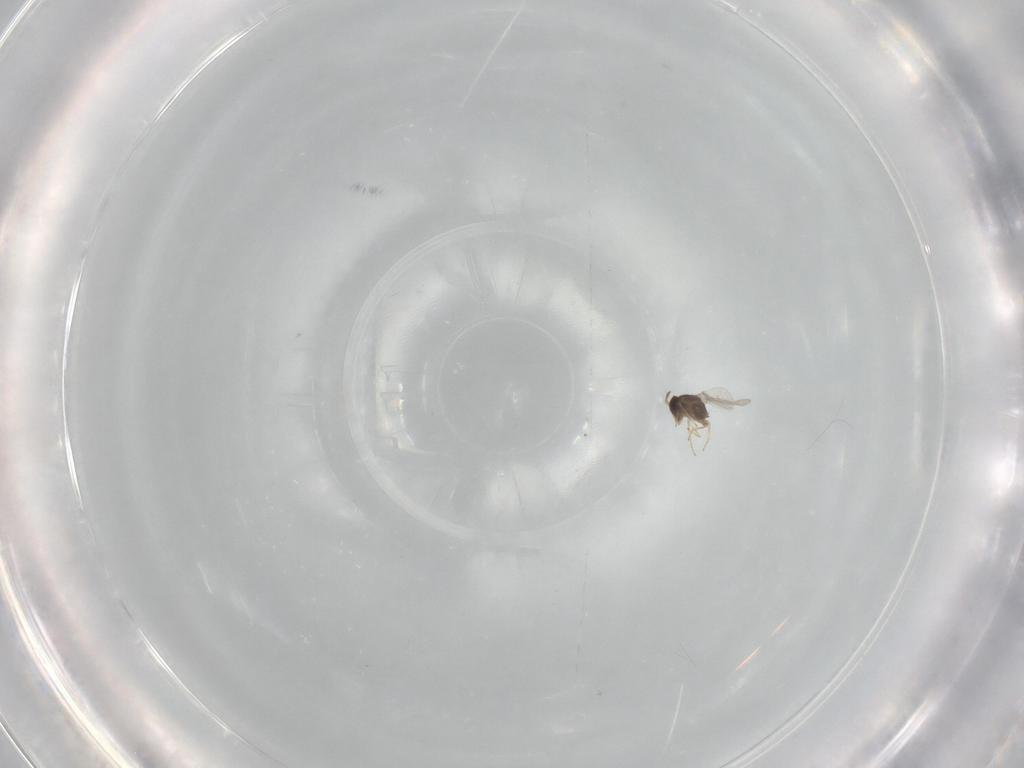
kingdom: Animalia
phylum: Arthropoda
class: Insecta
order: Hymenoptera
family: Encyrtidae
